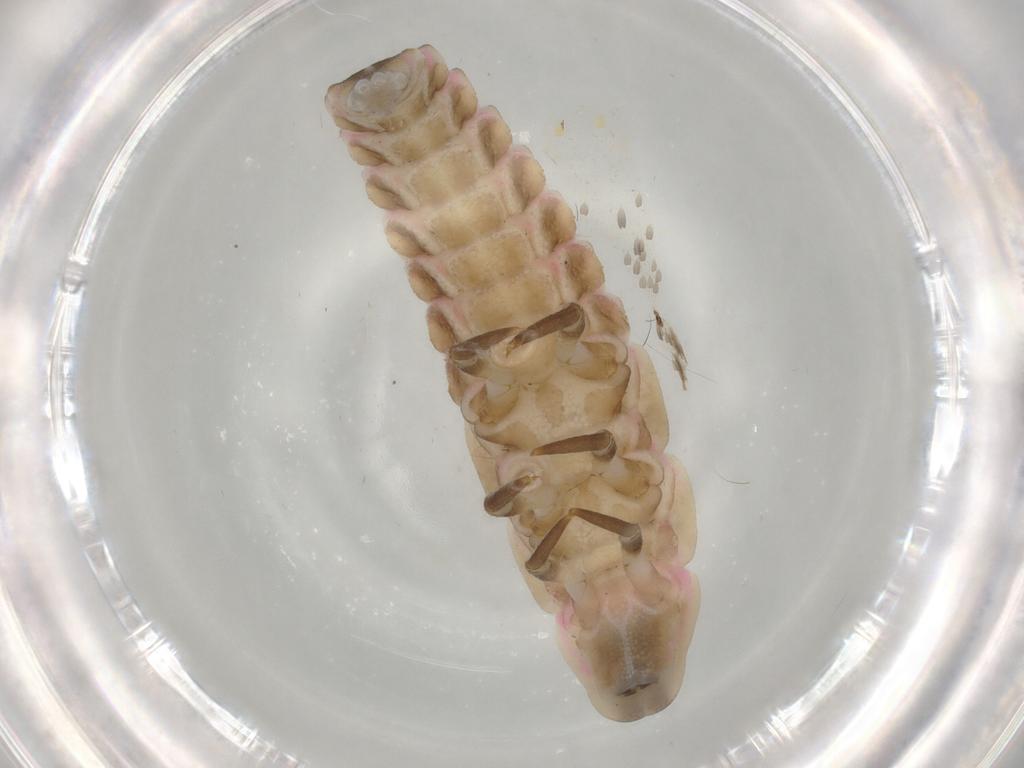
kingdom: Animalia
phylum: Arthropoda
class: Insecta
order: Coleoptera
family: Lampyridae
